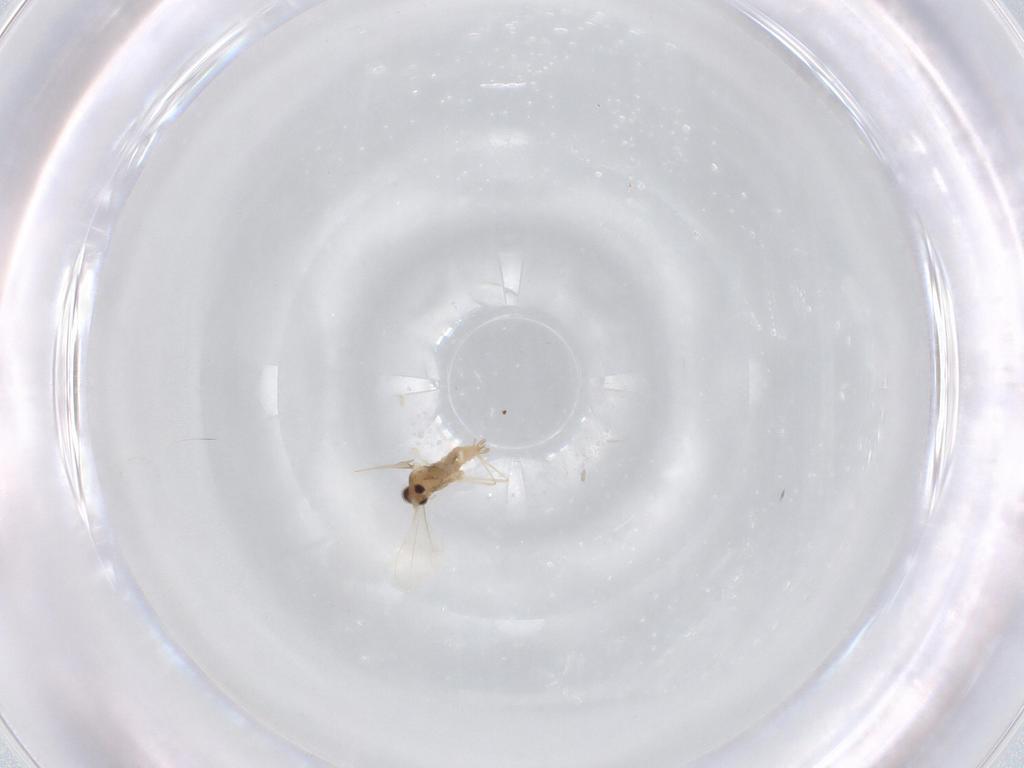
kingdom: Animalia
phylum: Arthropoda
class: Insecta
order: Diptera
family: Cecidomyiidae
